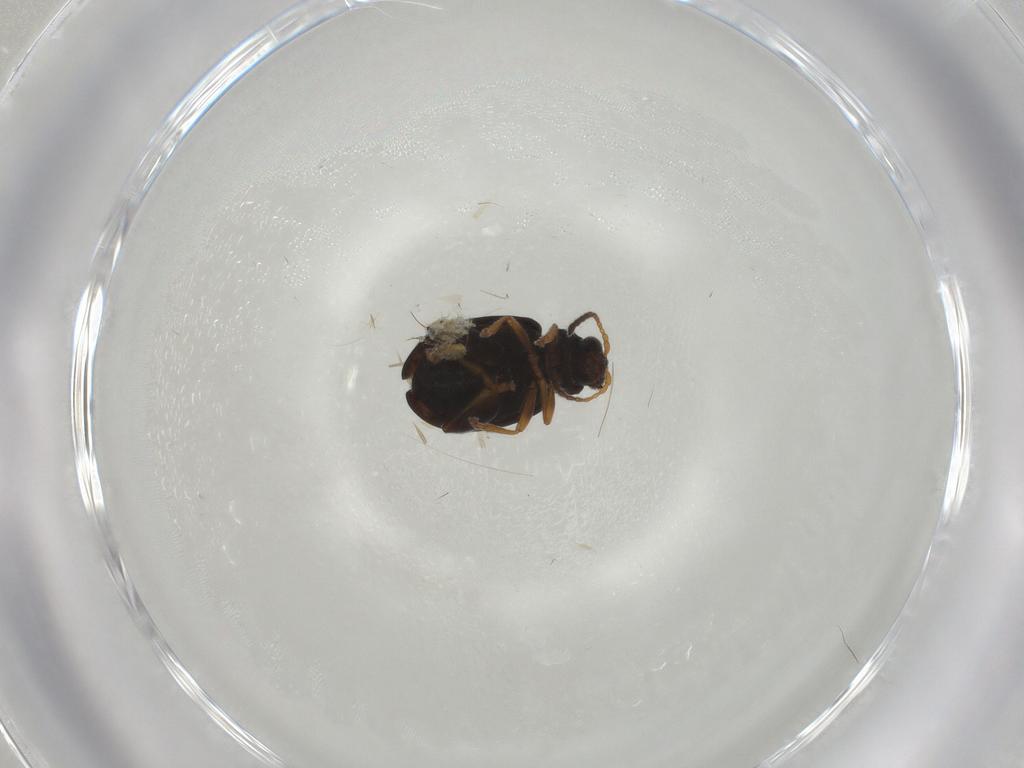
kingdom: Animalia
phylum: Arthropoda
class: Insecta
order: Coleoptera
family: Chrysomelidae
